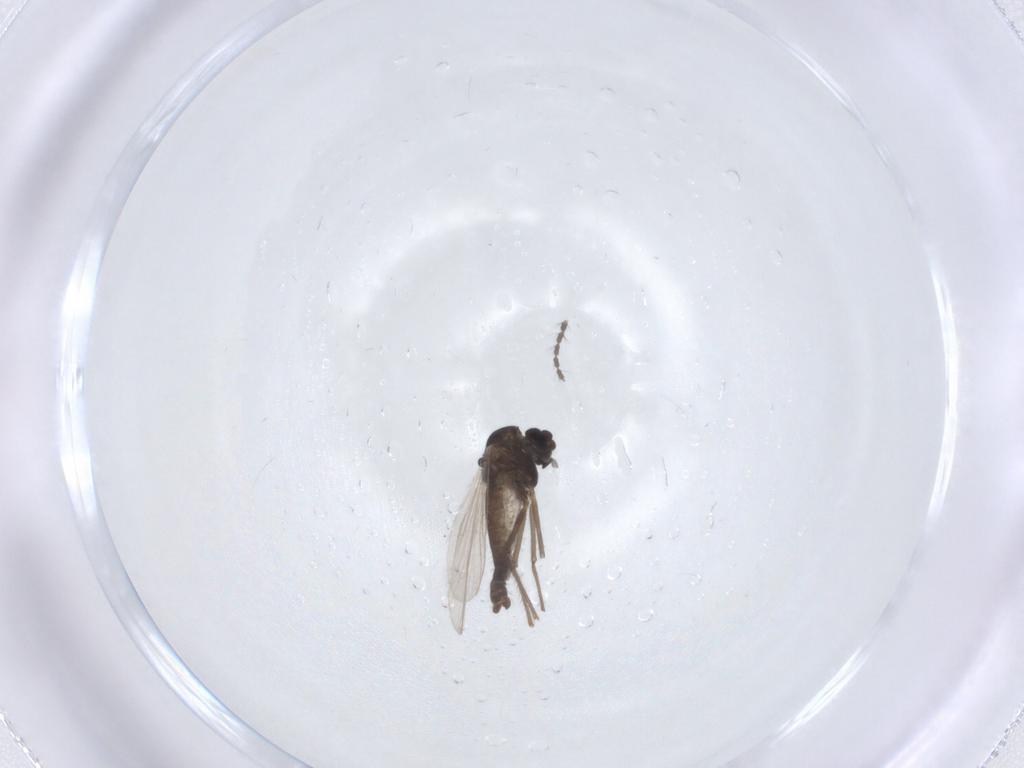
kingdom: Animalia
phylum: Arthropoda
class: Insecta
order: Diptera
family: Chironomidae
